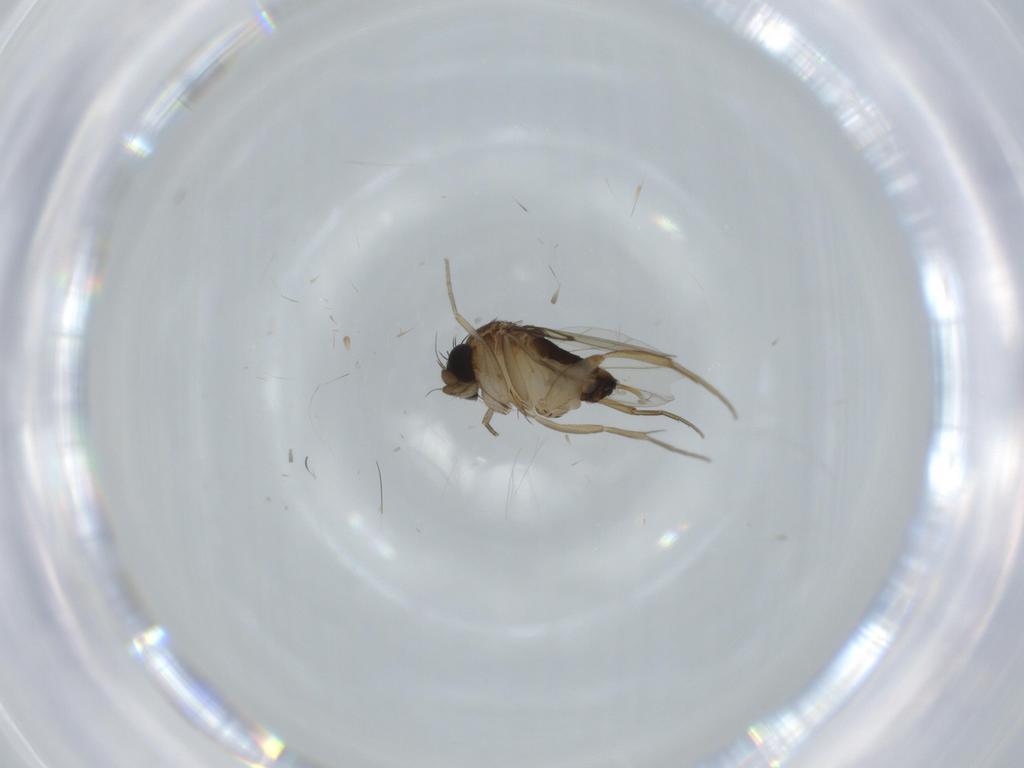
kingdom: Animalia
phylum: Arthropoda
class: Insecta
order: Diptera
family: Phoridae
